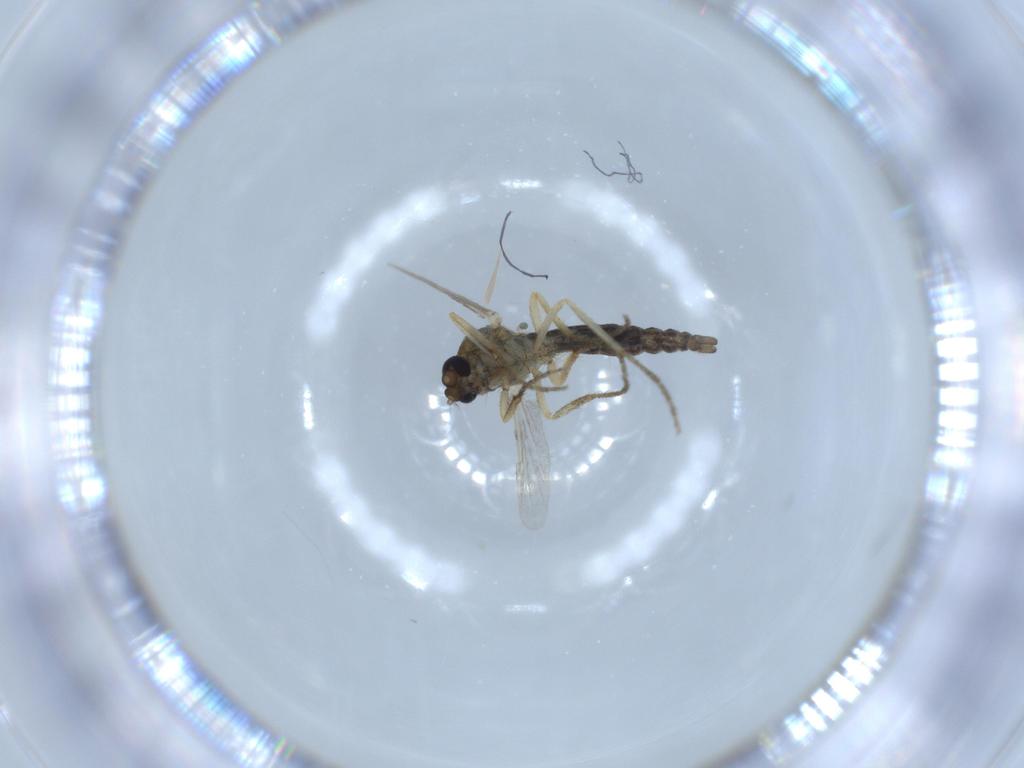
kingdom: Animalia
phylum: Arthropoda
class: Insecta
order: Diptera
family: Ceratopogonidae
